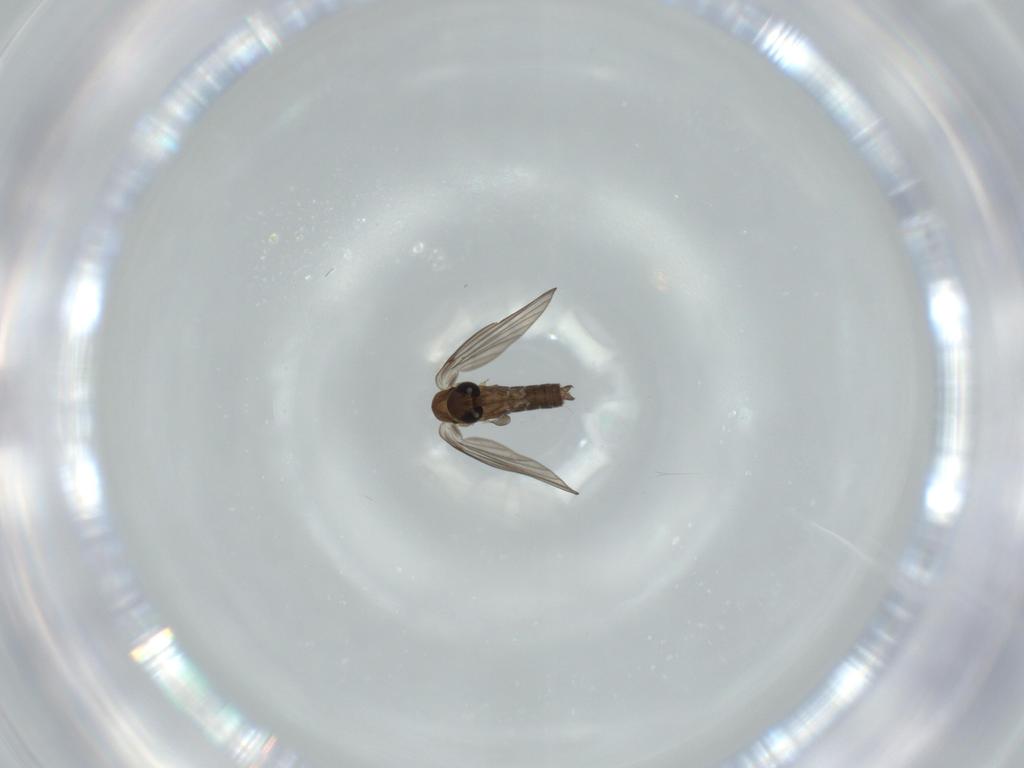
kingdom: Animalia
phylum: Arthropoda
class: Insecta
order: Diptera
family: Psychodidae
